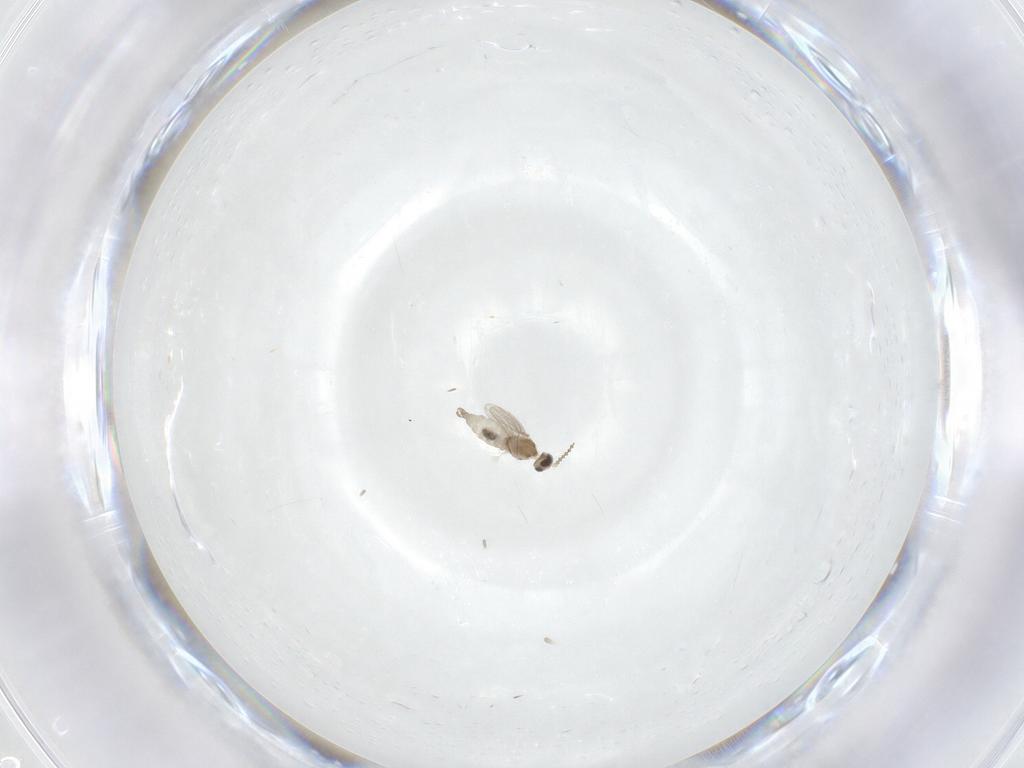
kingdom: Animalia
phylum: Arthropoda
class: Insecta
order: Diptera
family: Cecidomyiidae
